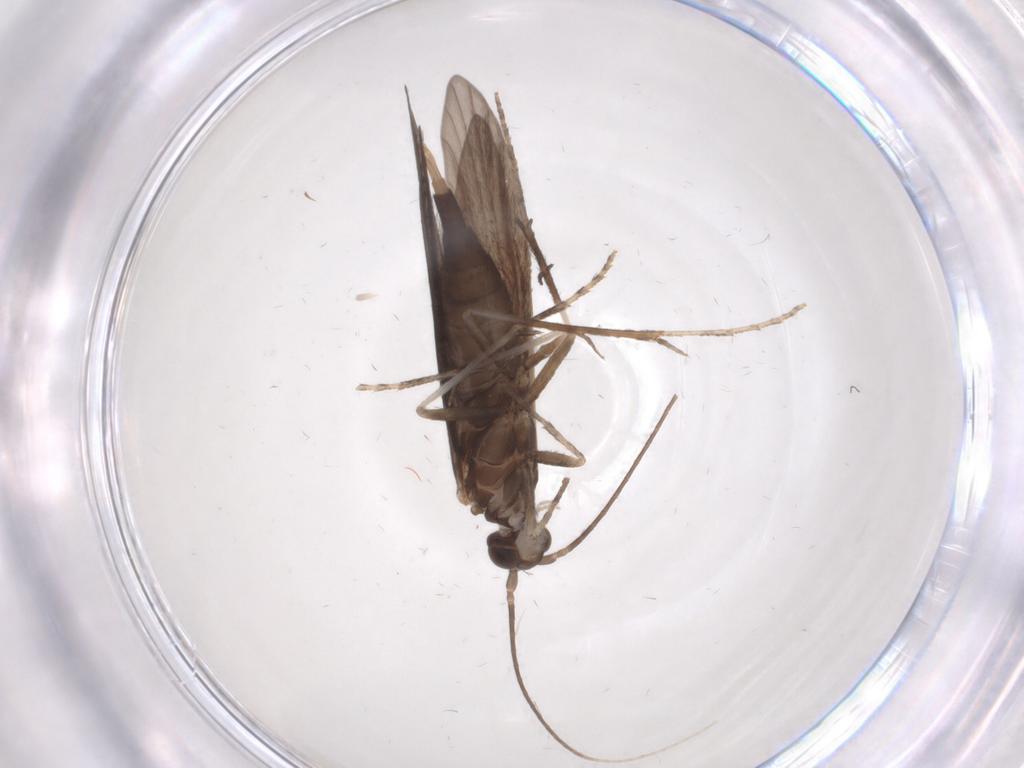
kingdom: Animalia
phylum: Arthropoda
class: Insecta
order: Trichoptera
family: Xiphocentronidae
